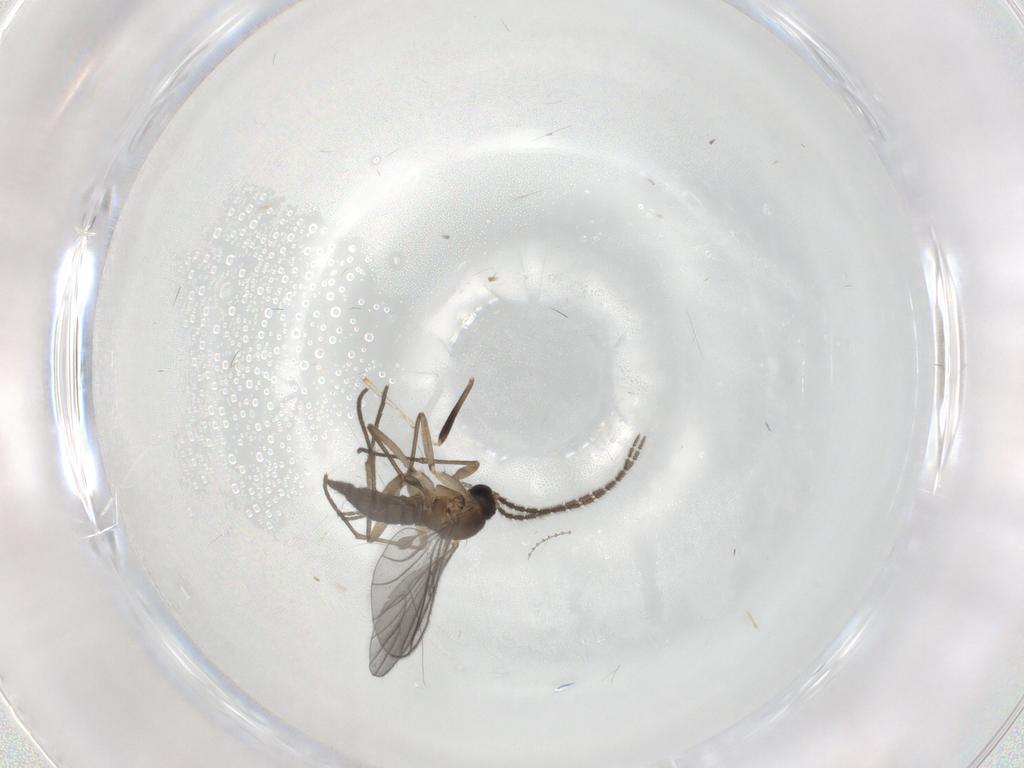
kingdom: Animalia
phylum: Arthropoda
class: Insecta
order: Diptera
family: Chironomidae
